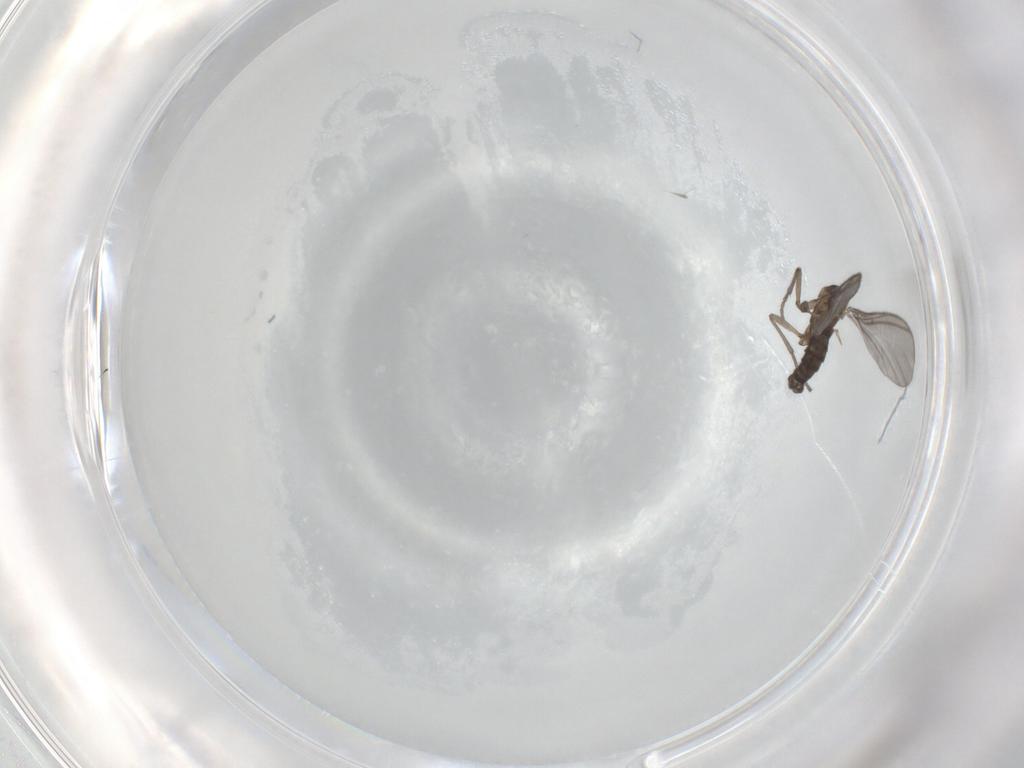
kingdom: Animalia
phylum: Arthropoda
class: Insecta
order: Diptera
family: Sciaridae
